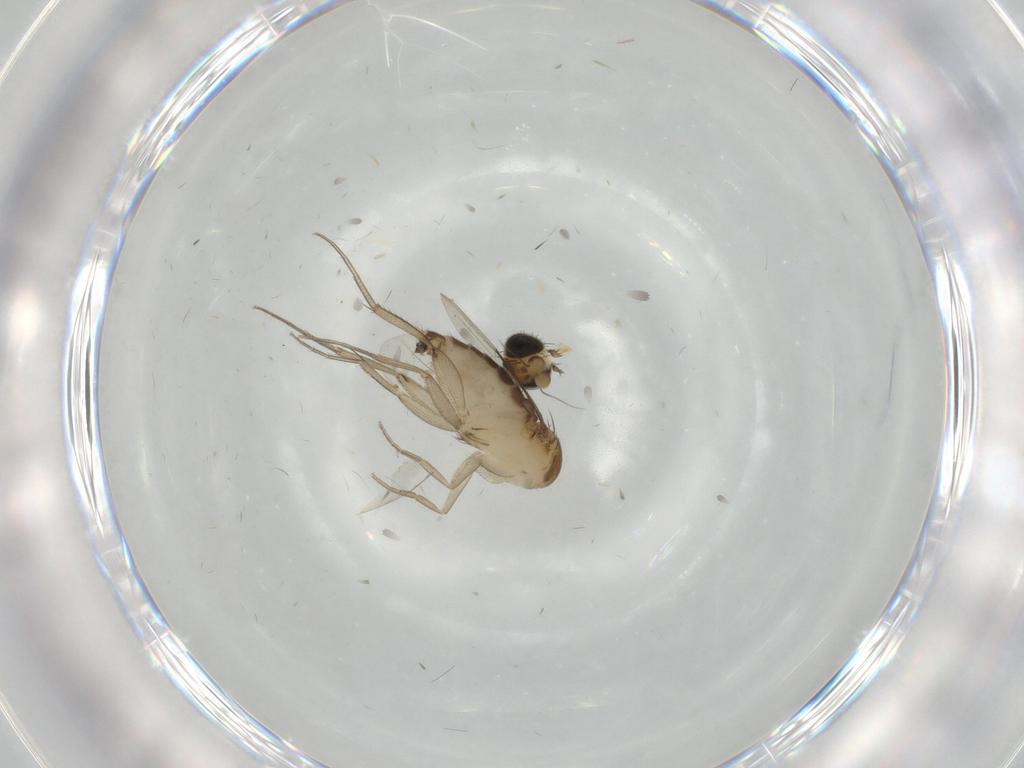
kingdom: Animalia
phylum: Arthropoda
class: Insecta
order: Diptera
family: Phoridae
